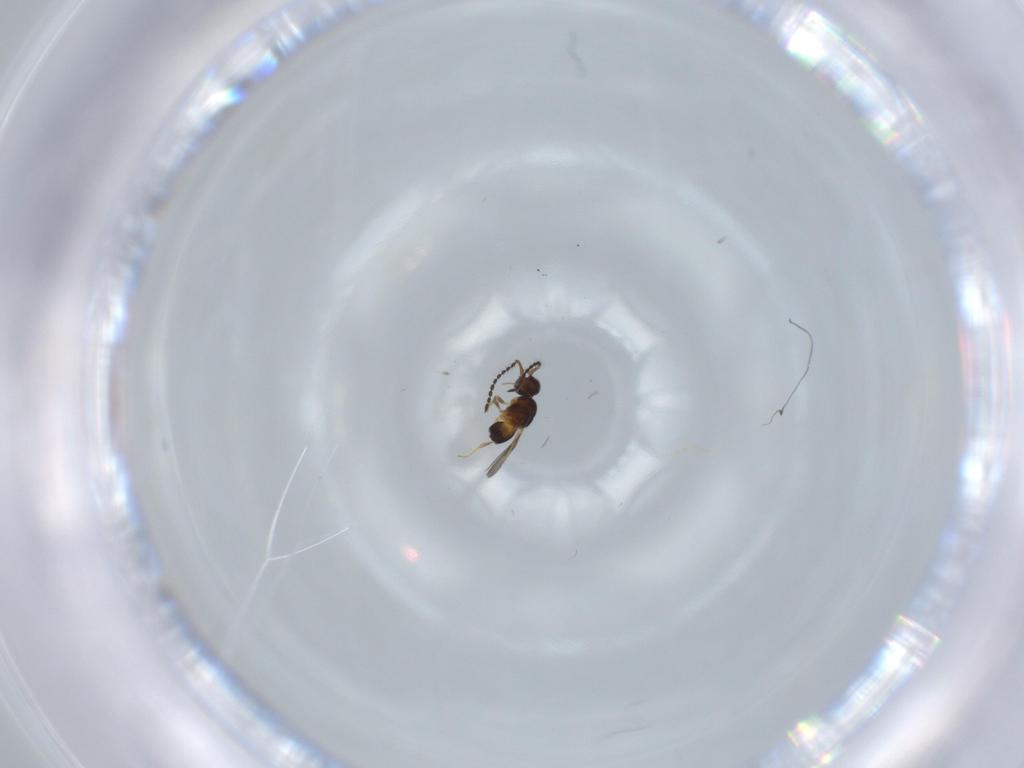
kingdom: Animalia
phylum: Arthropoda
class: Insecta
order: Hymenoptera
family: Ceraphronidae
